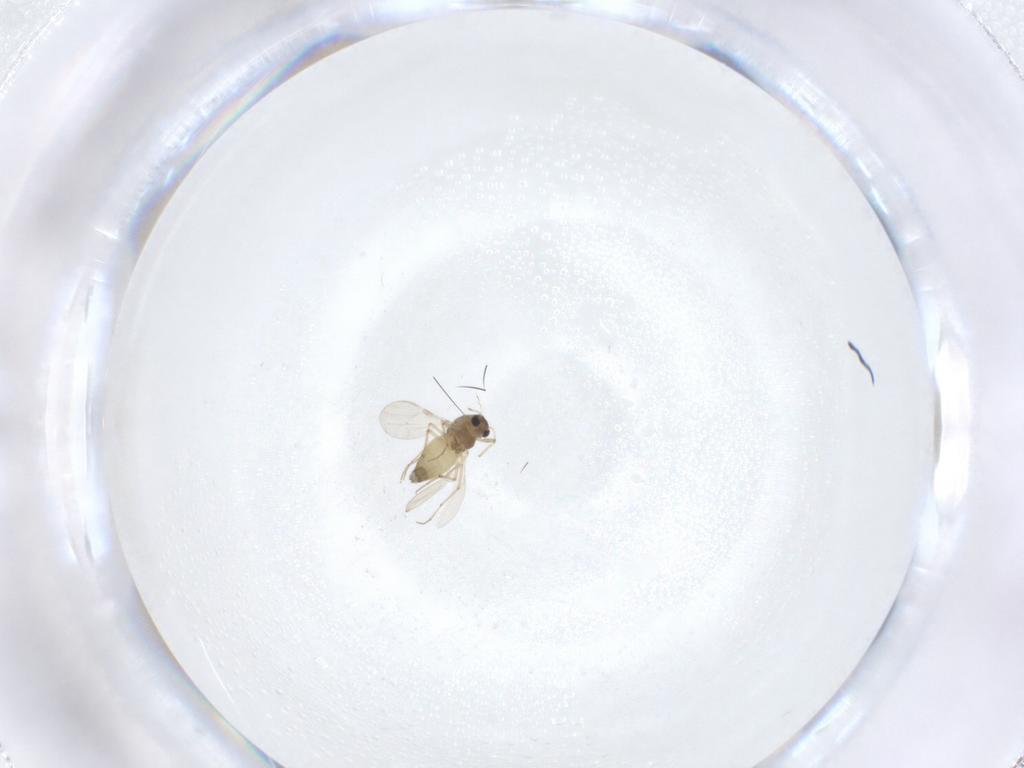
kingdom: Animalia
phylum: Arthropoda
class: Insecta
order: Diptera
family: Chironomidae
